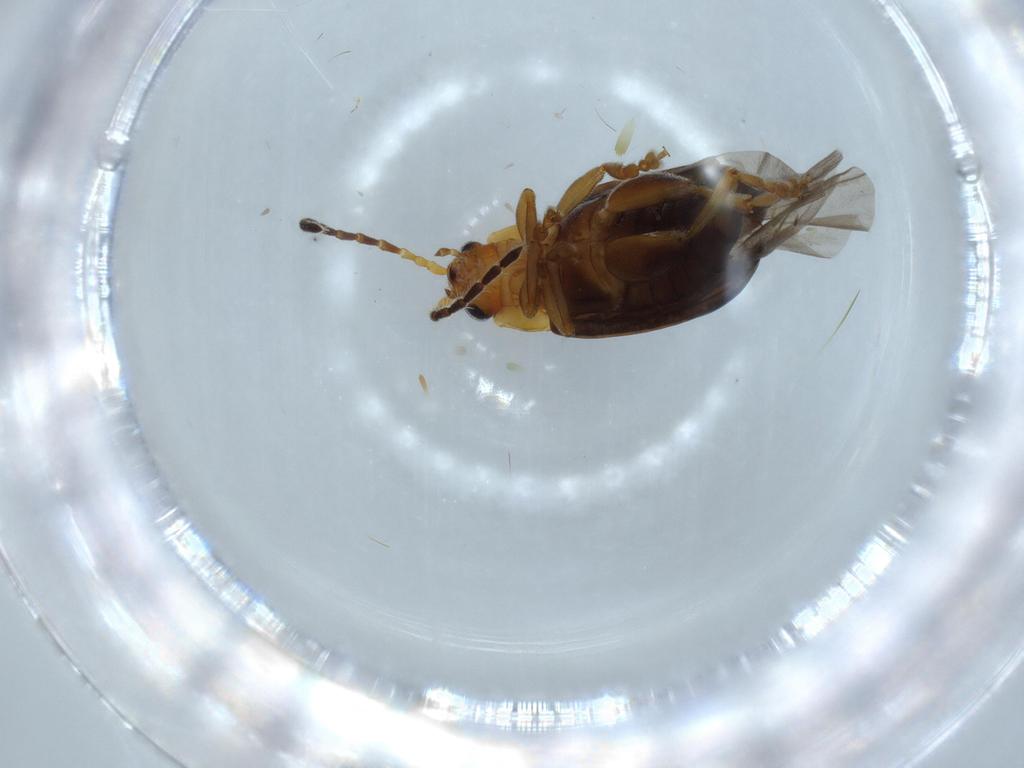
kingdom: Animalia
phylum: Arthropoda
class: Insecta
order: Coleoptera
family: Chrysomelidae
